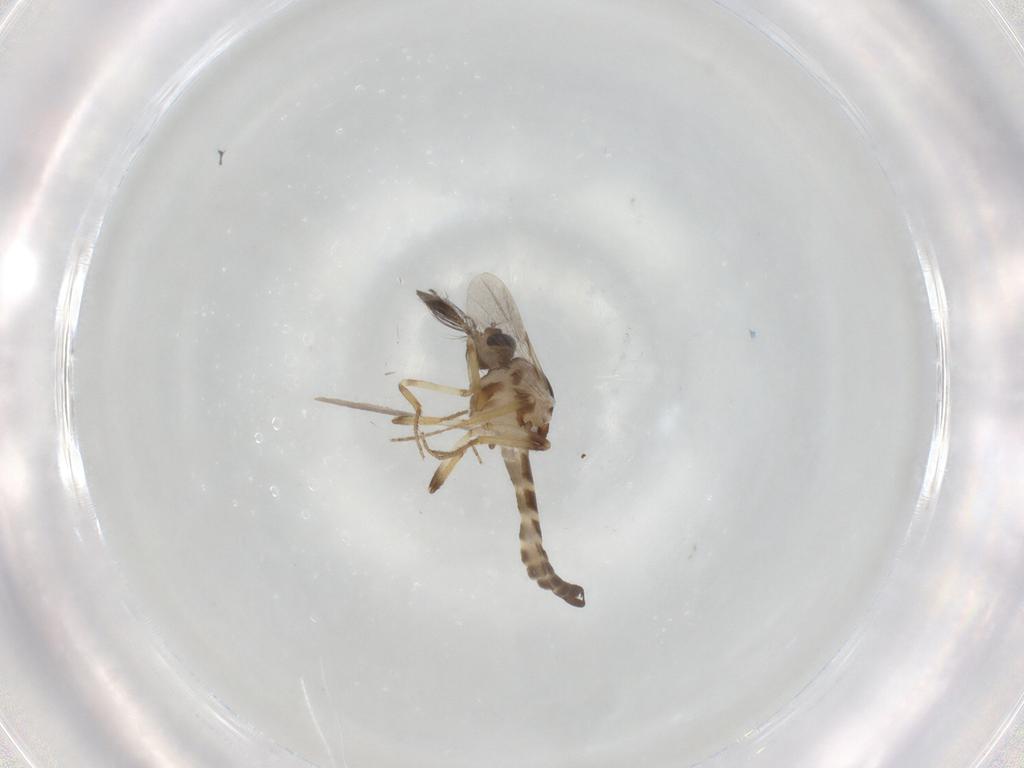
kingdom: Animalia
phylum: Arthropoda
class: Insecta
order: Diptera
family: Ceratopogonidae
